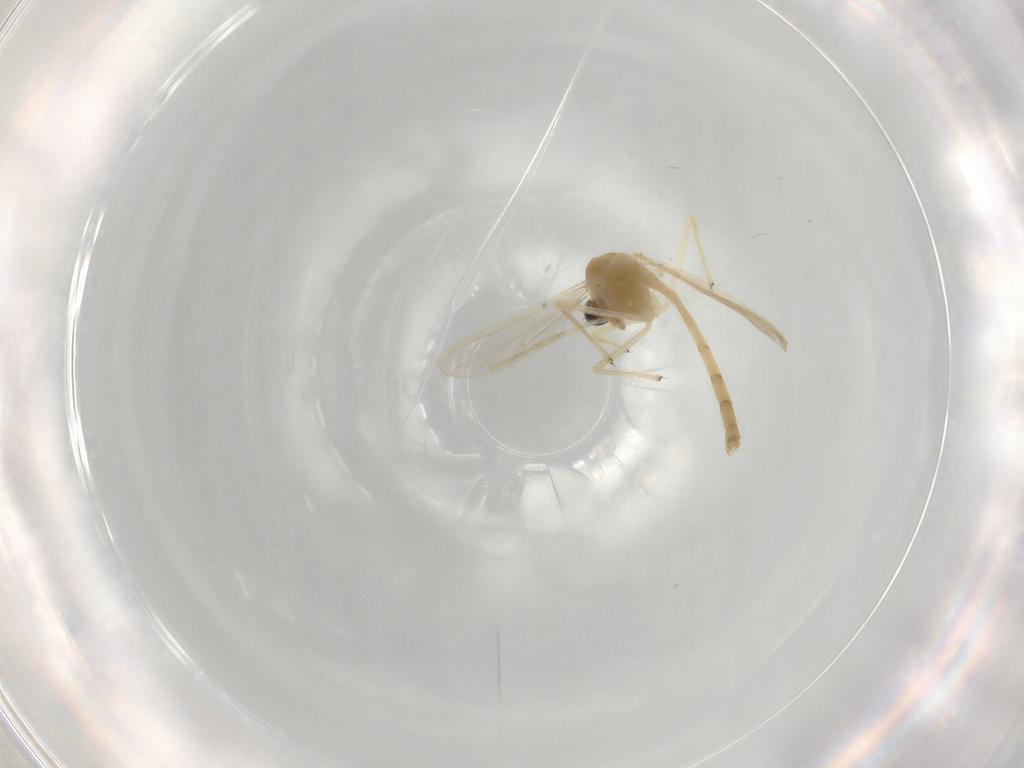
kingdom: Animalia
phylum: Arthropoda
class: Insecta
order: Diptera
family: Chironomidae
